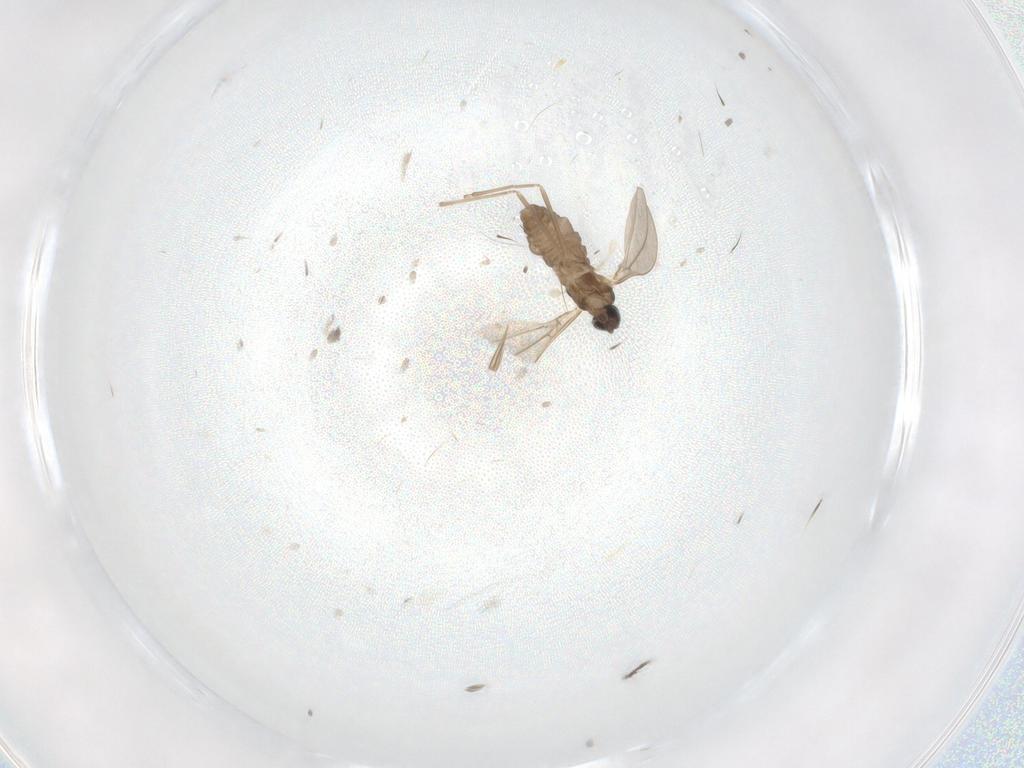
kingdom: Animalia
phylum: Arthropoda
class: Insecta
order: Diptera
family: Cecidomyiidae
